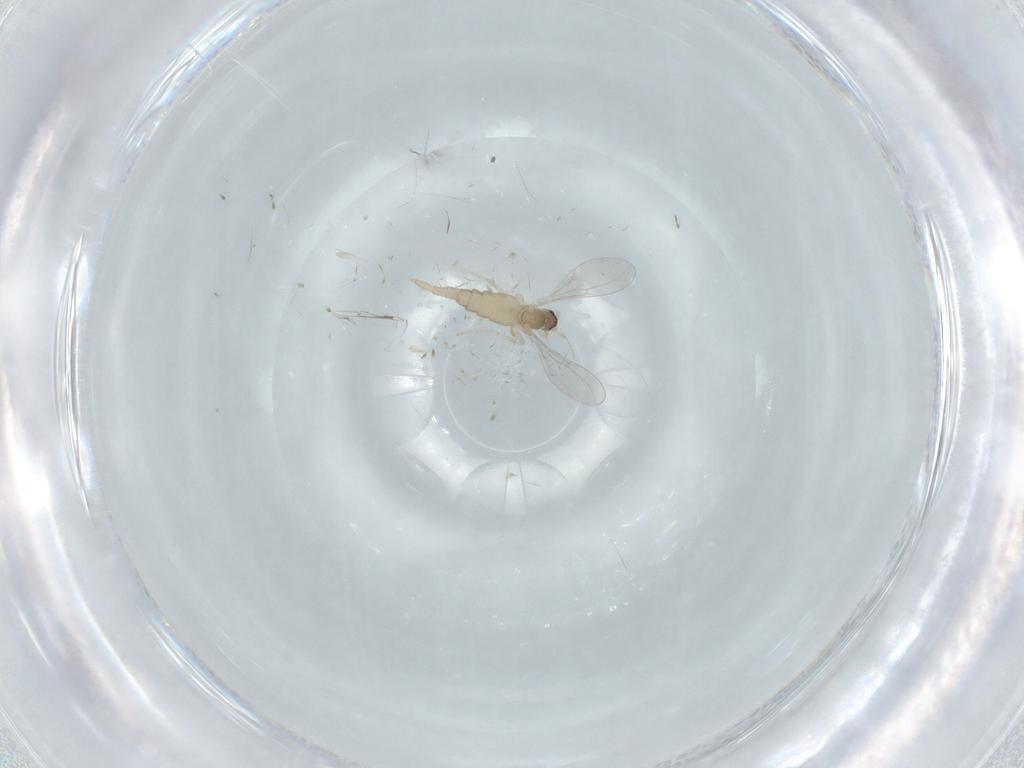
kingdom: Animalia
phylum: Arthropoda
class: Insecta
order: Diptera
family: Cecidomyiidae
